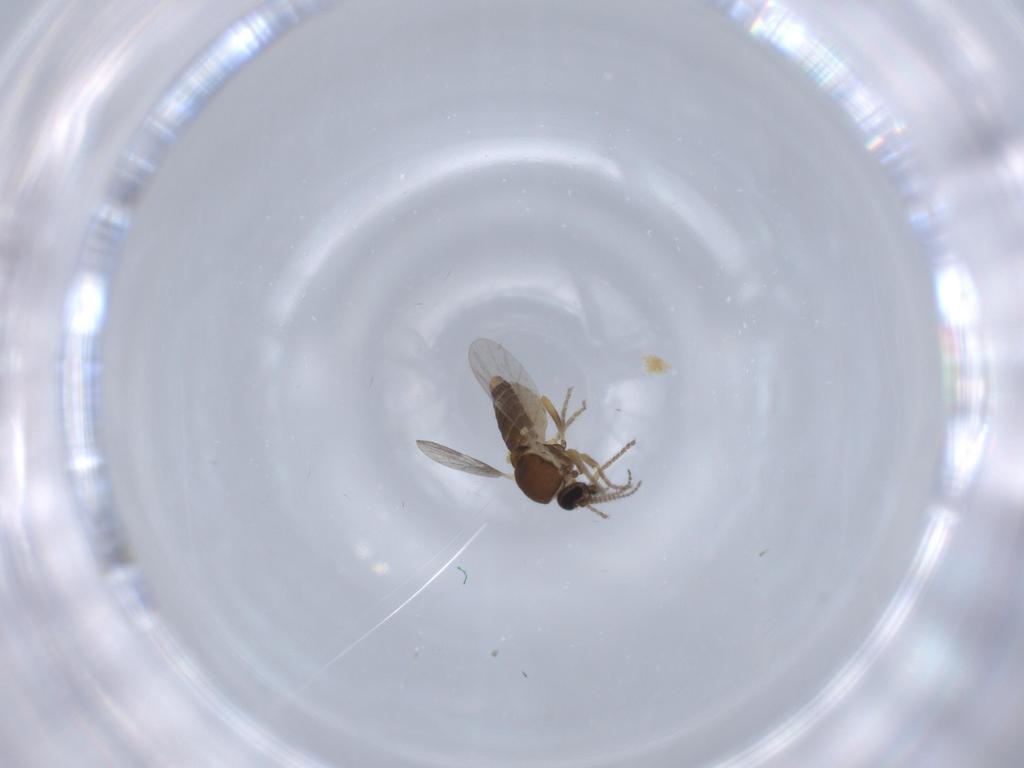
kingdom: Animalia
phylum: Arthropoda
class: Insecta
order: Diptera
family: Ceratopogonidae
